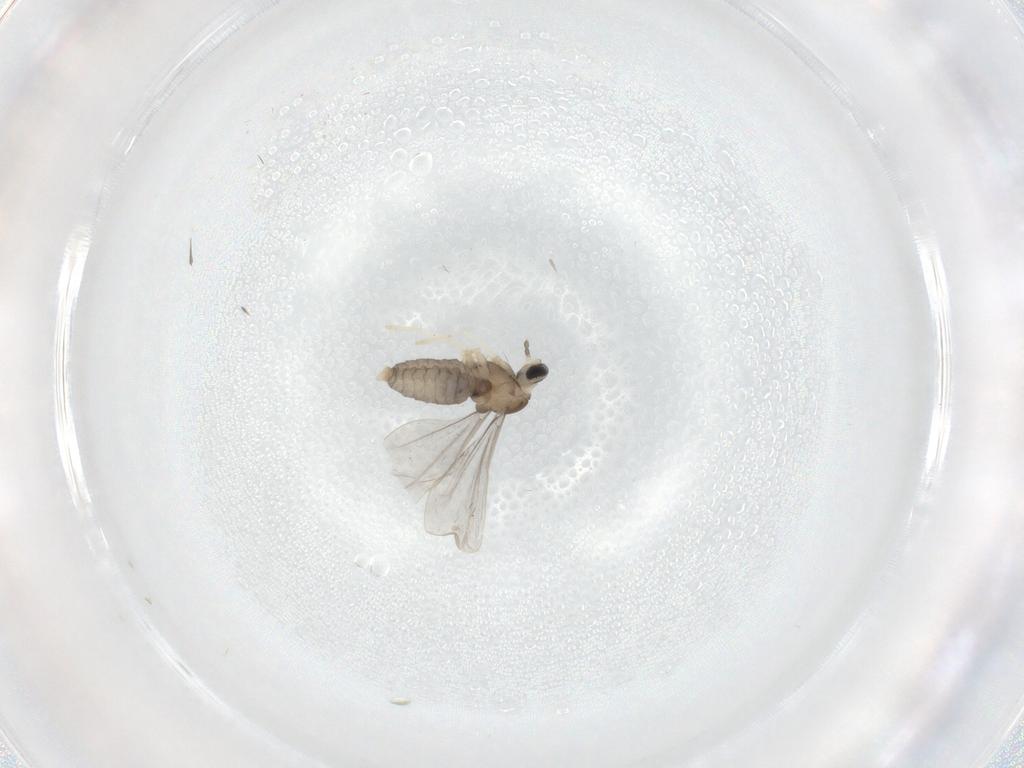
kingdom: Animalia
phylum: Arthropoda
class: Insecta
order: Diptera
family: Cecidomyiidae
